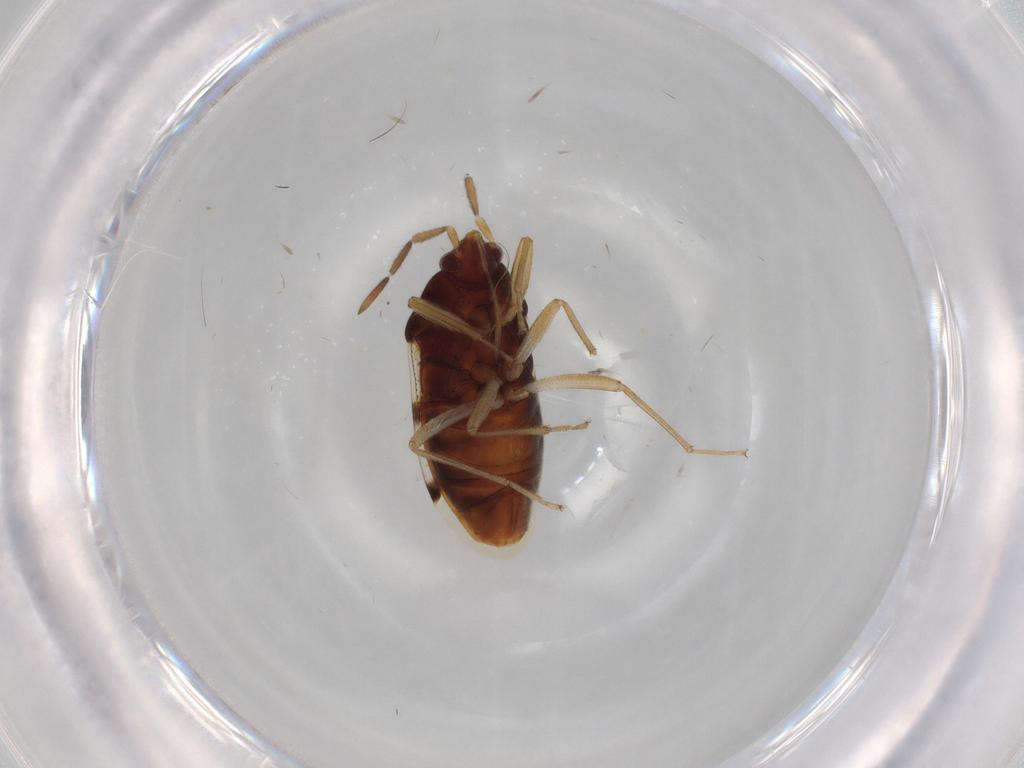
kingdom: Animalia
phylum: Arthropoda
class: Insecta
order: Hemiptera
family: Rhyparochromidae
